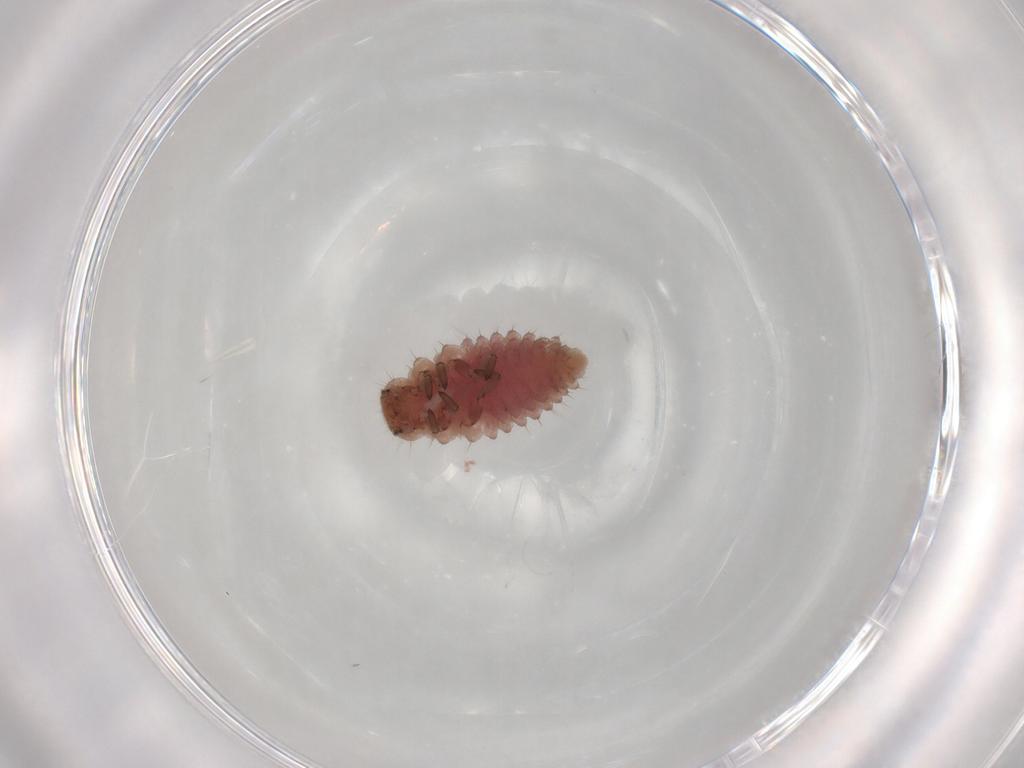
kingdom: Animalia
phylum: Arthropoda
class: Insecta
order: Coleoptera
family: Coccinellidae
